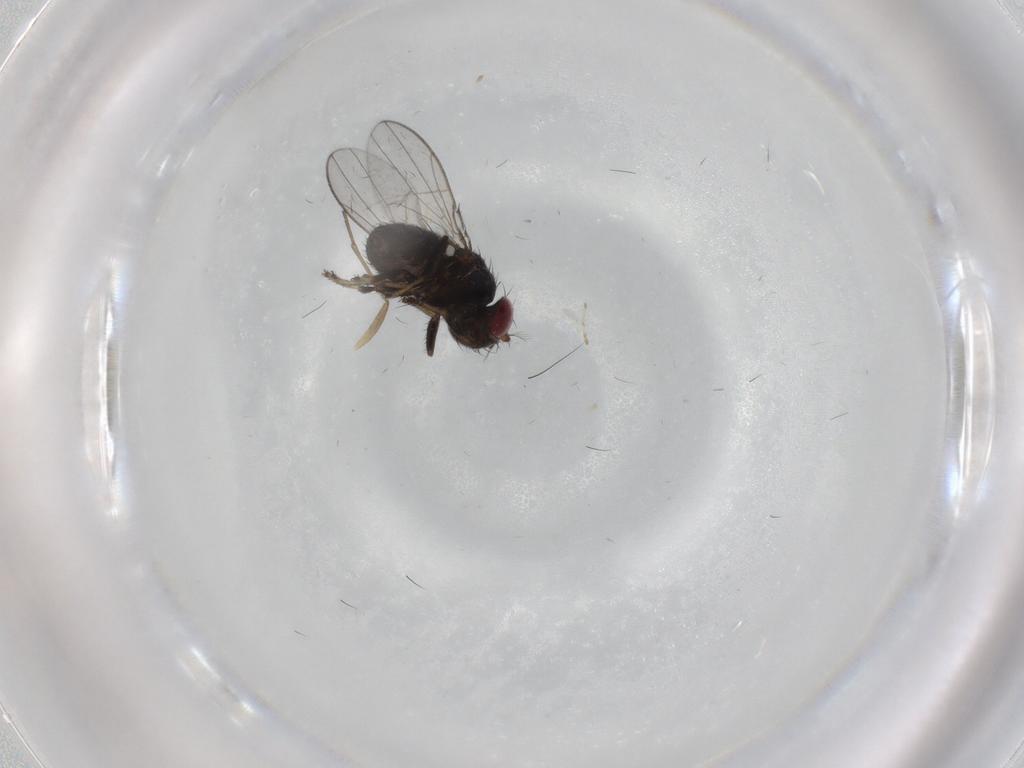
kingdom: Animalia
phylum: Arthropoda
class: Insecta
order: Diptera
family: Ephydridae
